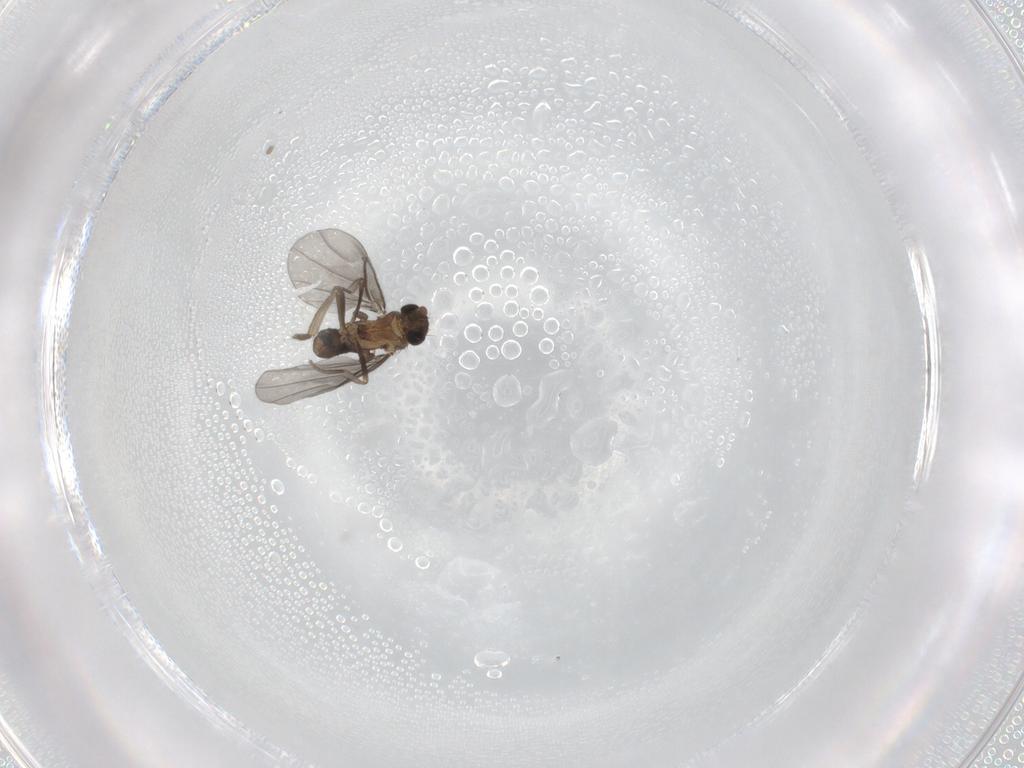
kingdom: Animalia
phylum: Arthropoda
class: Insecta
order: Diptera
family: Phoridae
